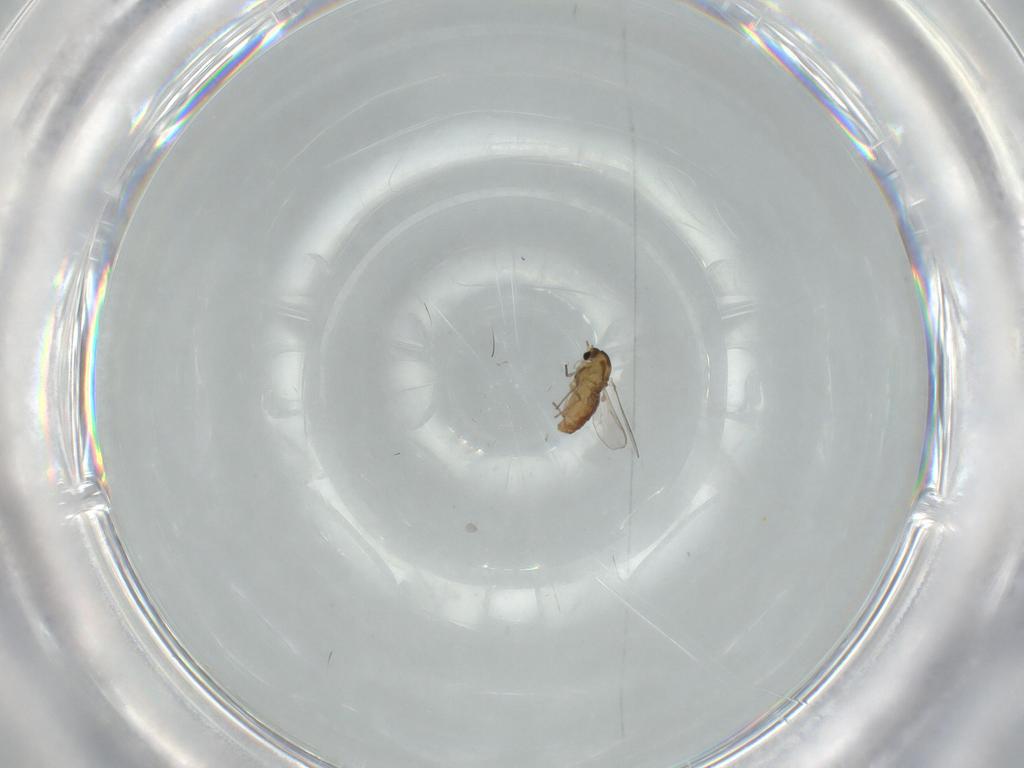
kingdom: Animalia
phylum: Arthropoda
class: Insecta
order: Diptera
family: Chironomidae
